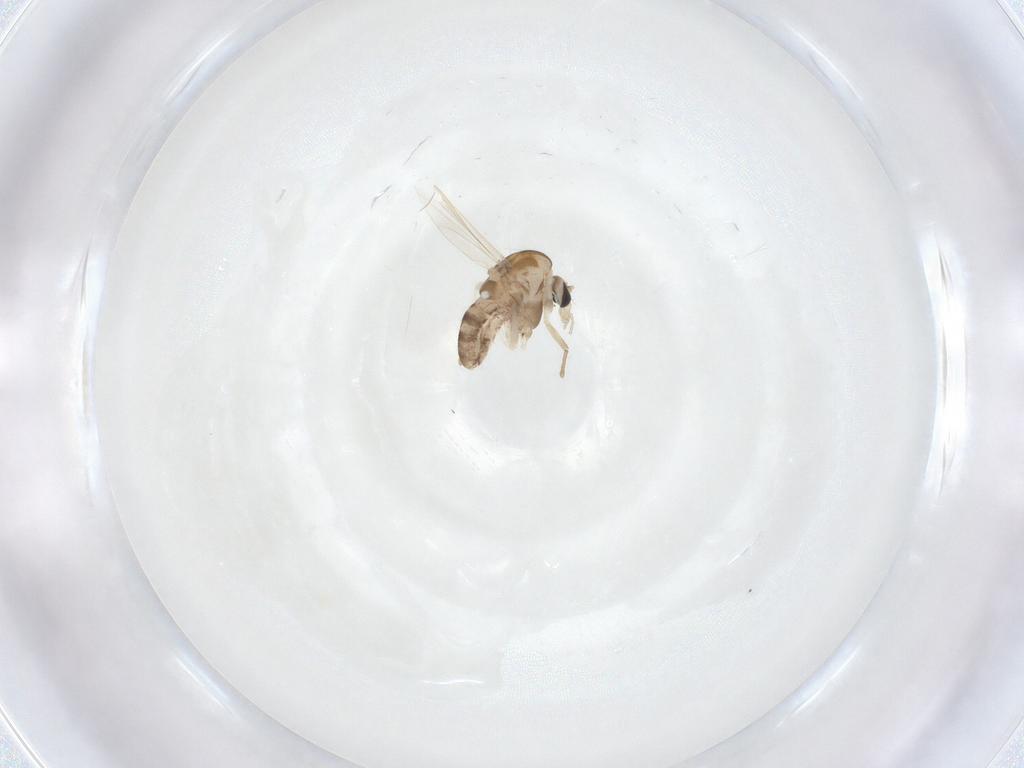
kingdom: Animalia
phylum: Arthropoda
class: Insecta
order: Diptera
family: Chironomidae
